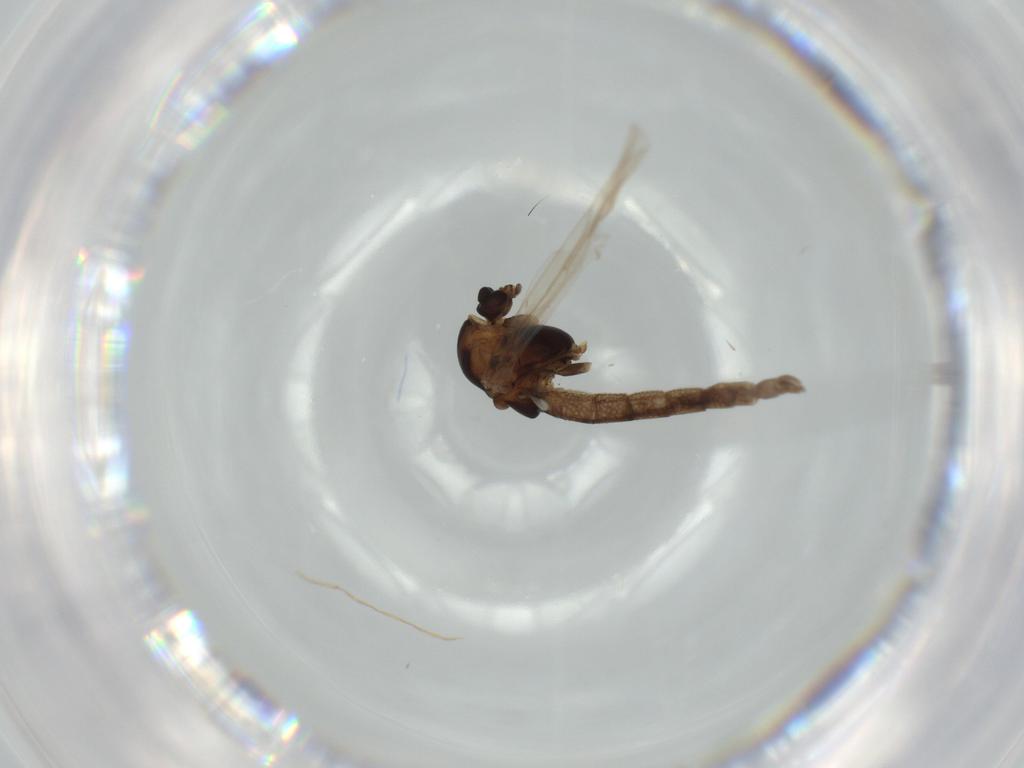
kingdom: Animalia
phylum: Arthropoda
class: Insecta
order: Diptera
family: Chironomidae
